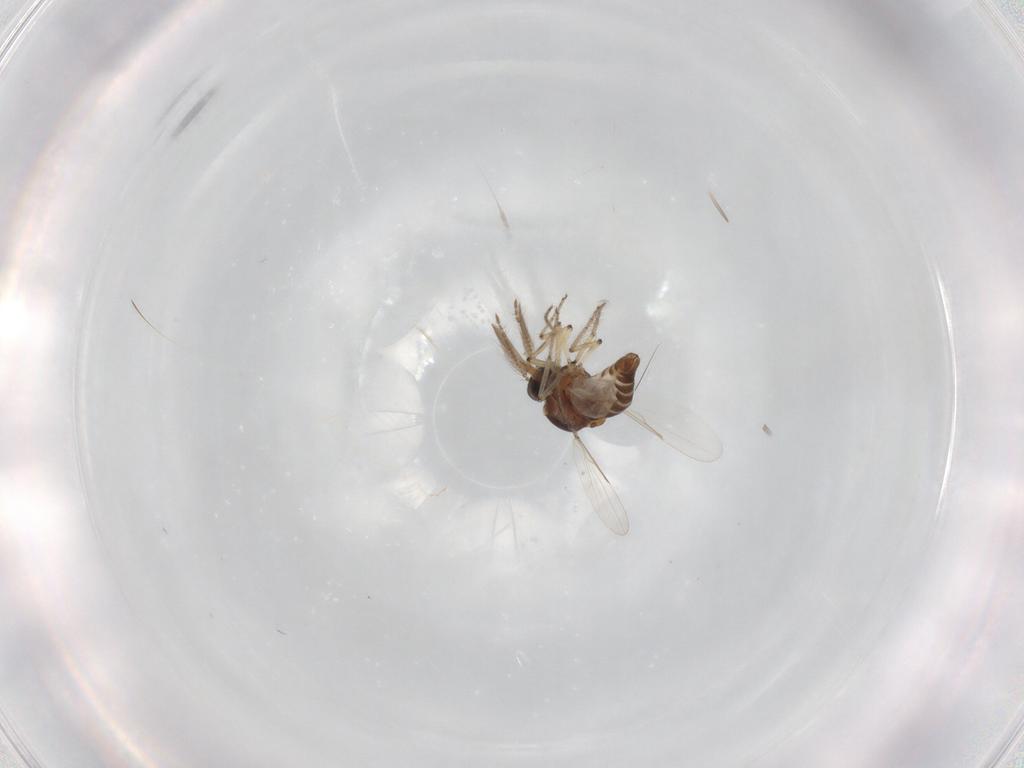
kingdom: Animalia
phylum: Arthropoda
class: Insecta
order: Diptera
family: Ceratopogonidae
